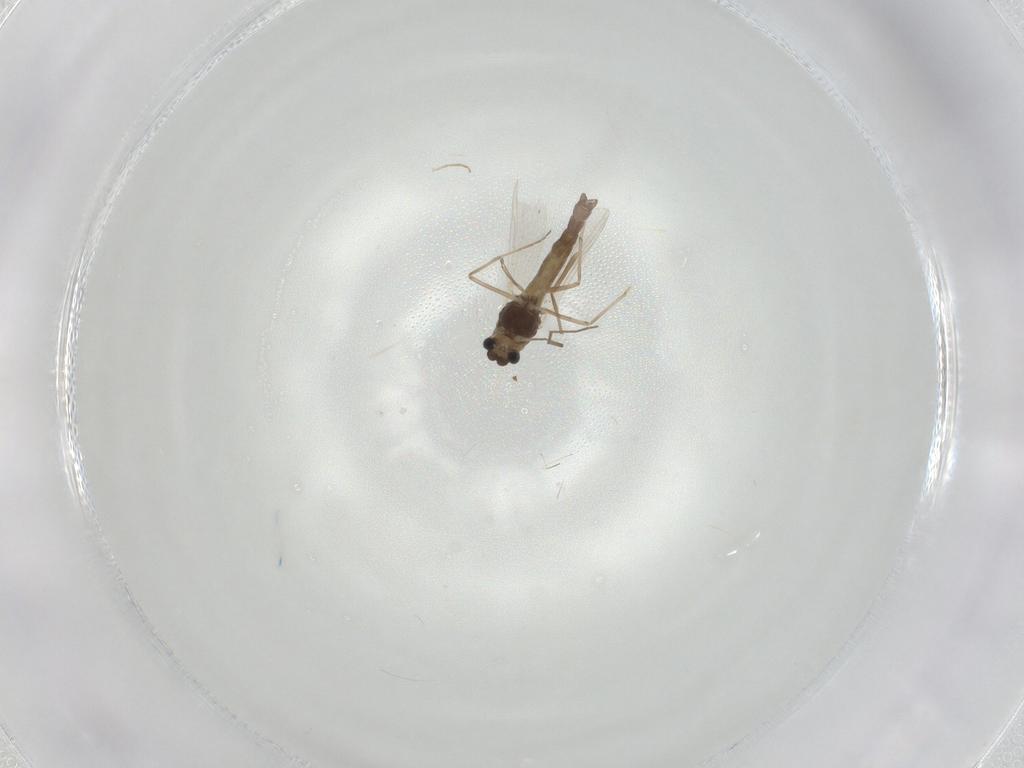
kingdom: Animalia
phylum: Arthropoda
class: Insecta
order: Diptera
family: Chironomidae
